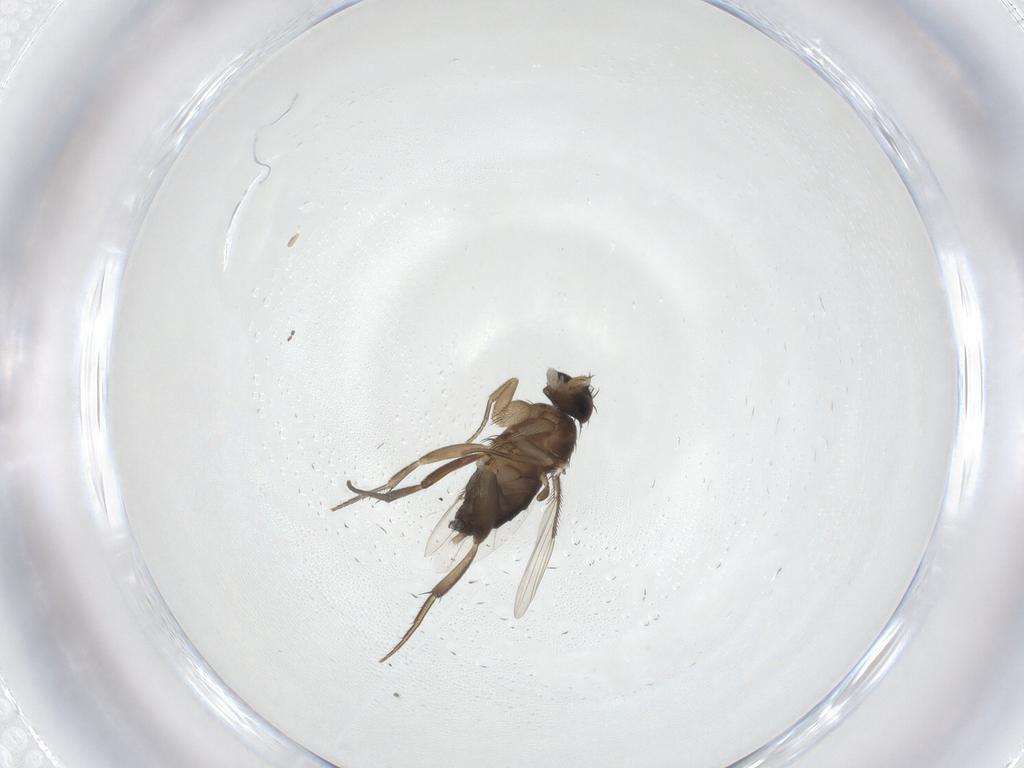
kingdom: Animalia
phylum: Arthropoda
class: Insecta
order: Diptera
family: Phoridae
